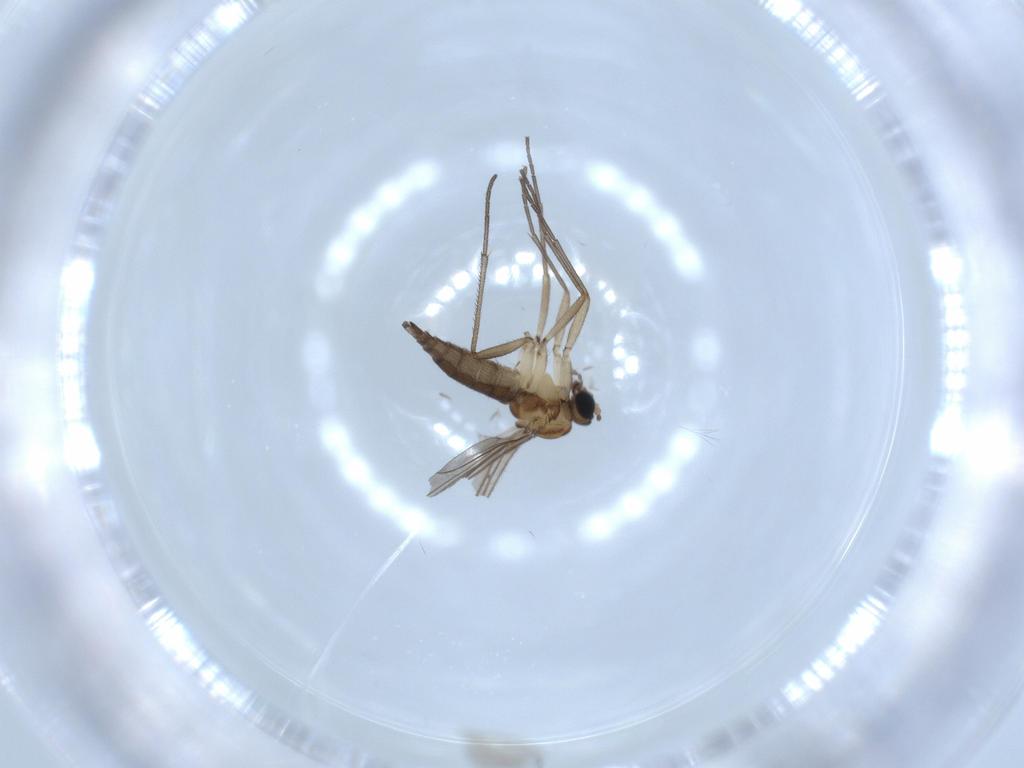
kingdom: Animalia
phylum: Arthropoda
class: Insecta
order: Diptera
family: Sciaridae
